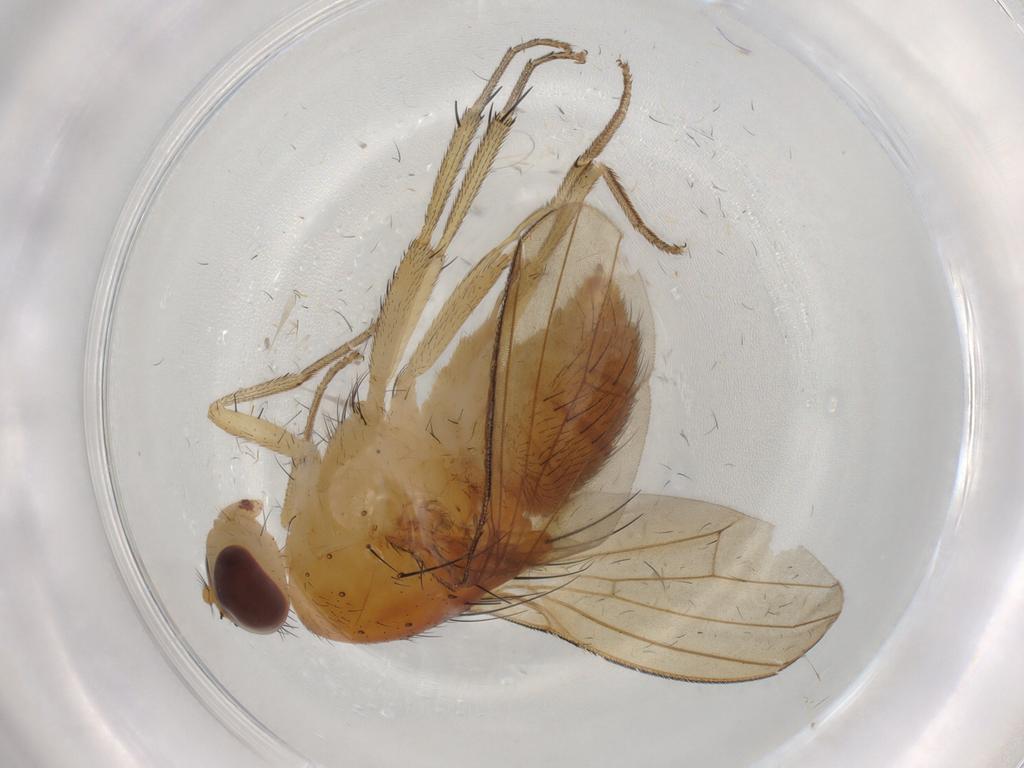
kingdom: Animalia
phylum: Arthropoda
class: Insecta
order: Diptera
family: Lauxaniidae
